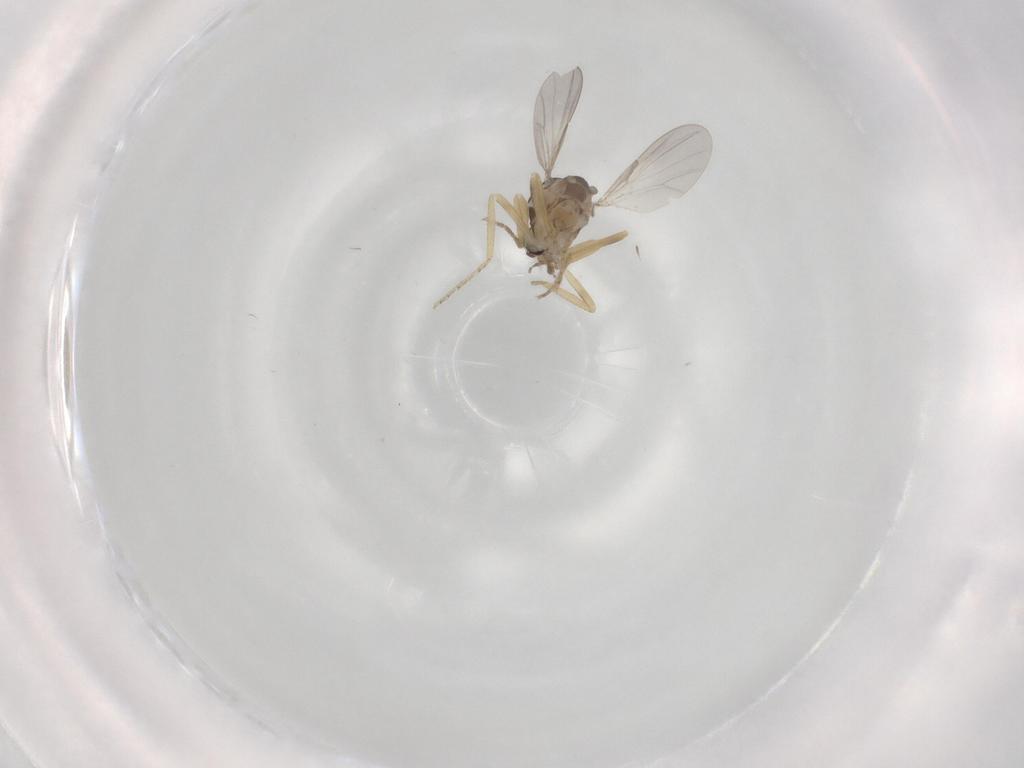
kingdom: Animalia
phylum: Arthropoda
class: Insecta
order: Diptera
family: Ceratopogonidae
